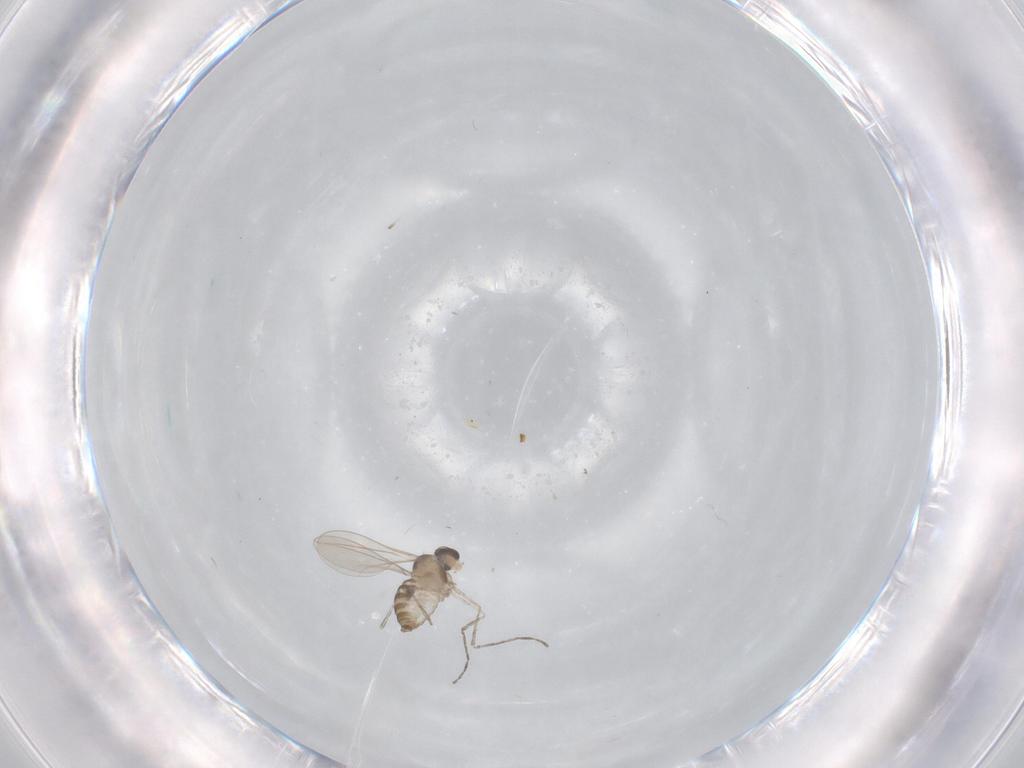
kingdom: Animalia
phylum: Arthropoda
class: Insecta
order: Diptera
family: Cecidomyiidae
